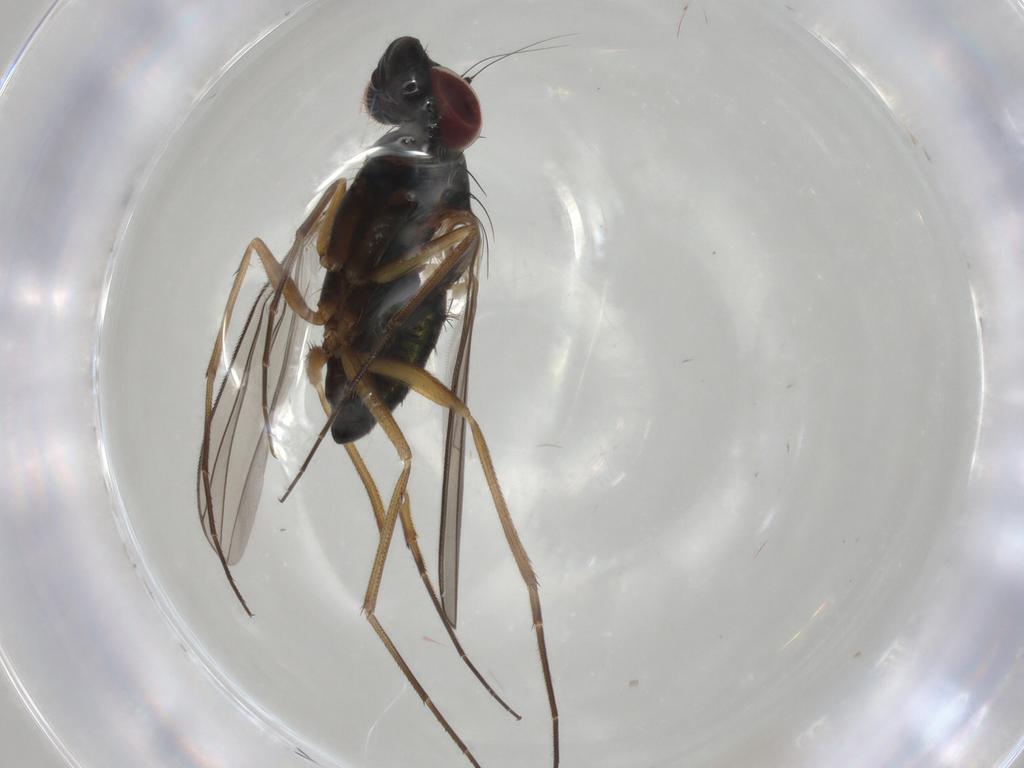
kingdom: Animalia
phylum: Arthropoda
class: Insecta
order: Diptera
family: Dolichopodidae
